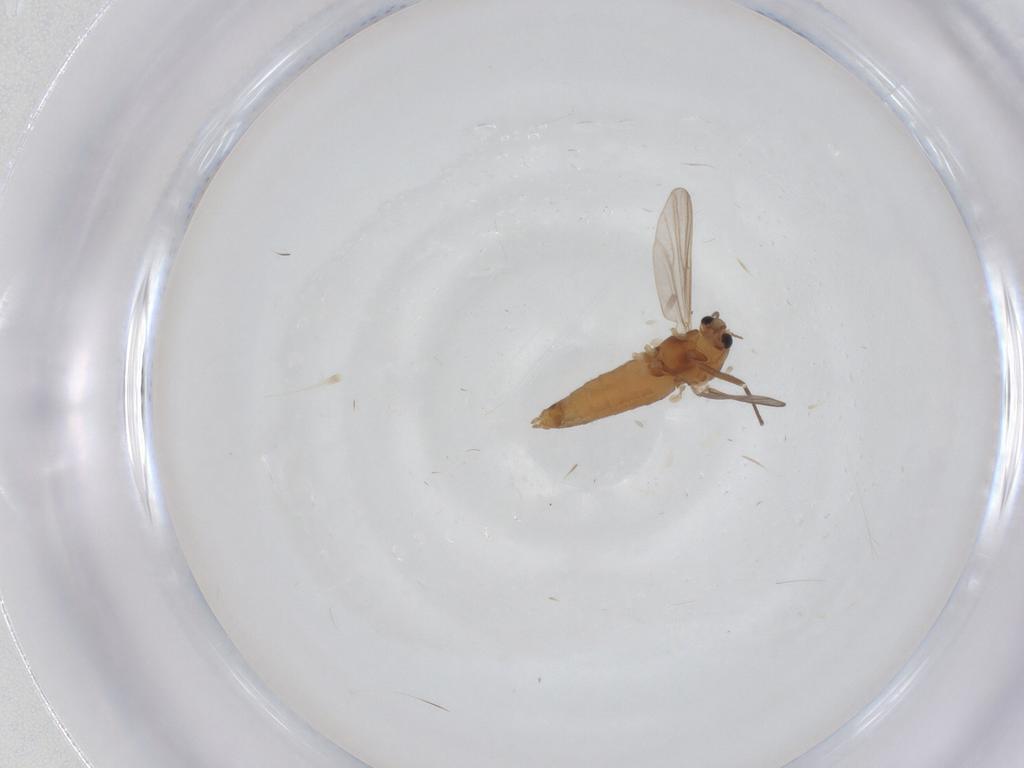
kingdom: Animalia
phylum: Arthropoda
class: Insecta
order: Diptera
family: Chironomidae
